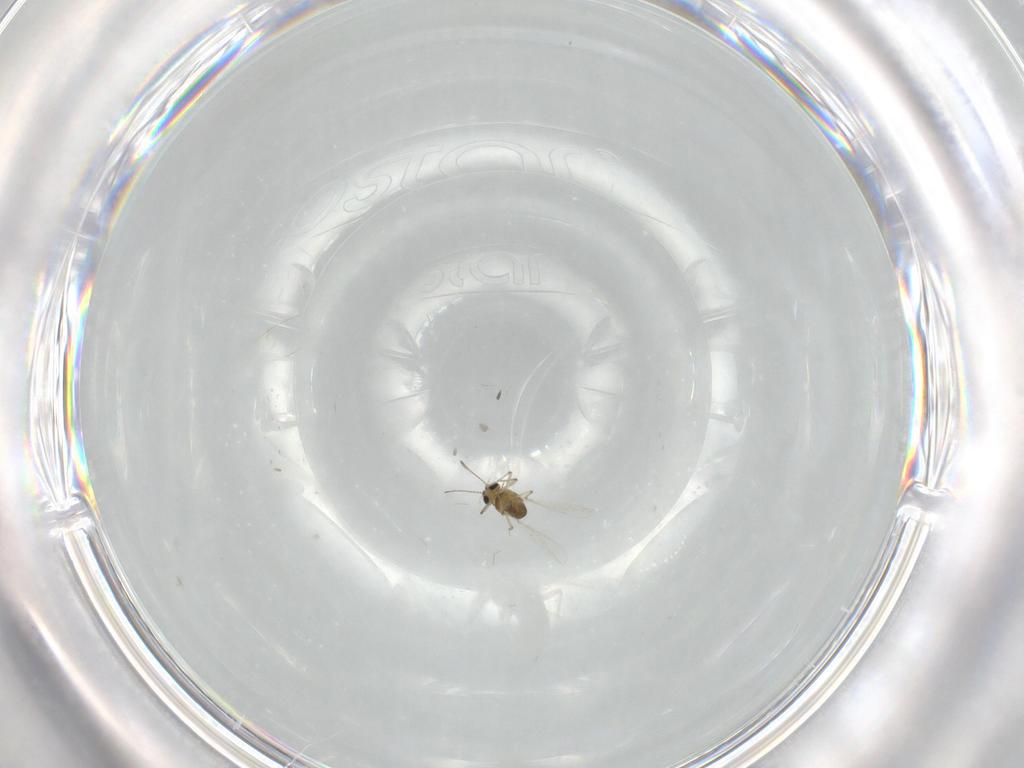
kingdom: Animalia
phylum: Arthropoda
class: Insecta
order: Diptera
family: Chironomidae
